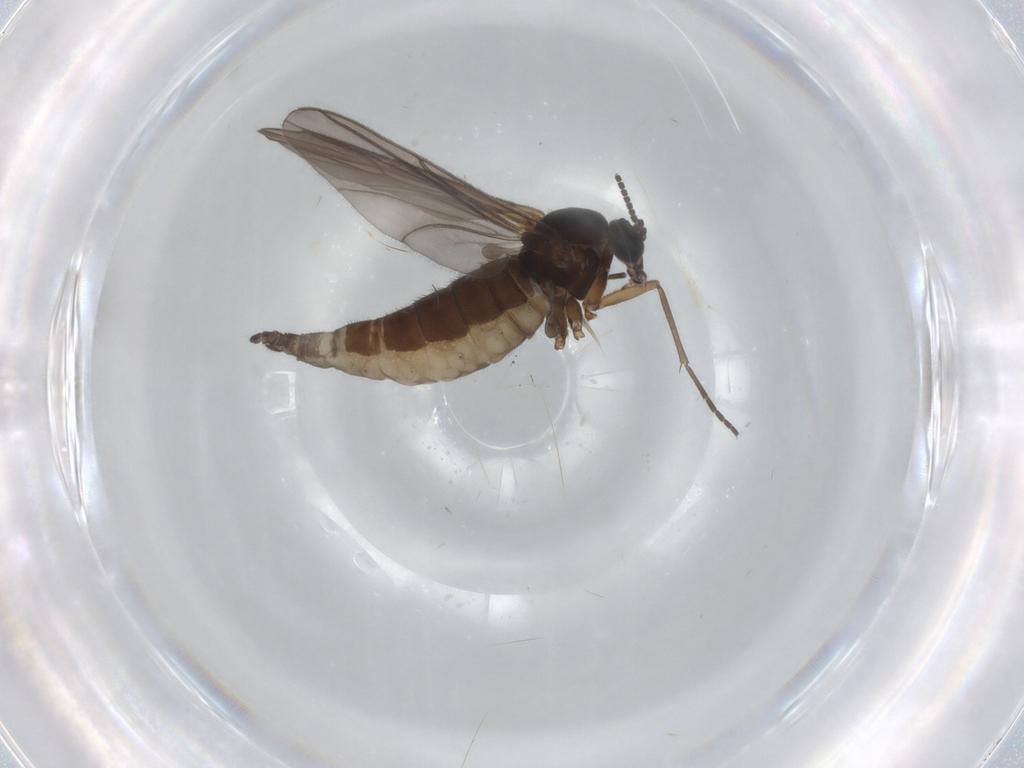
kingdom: Animalia
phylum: Arthropoda
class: Insecta
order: Diptera
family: Sciaridae
